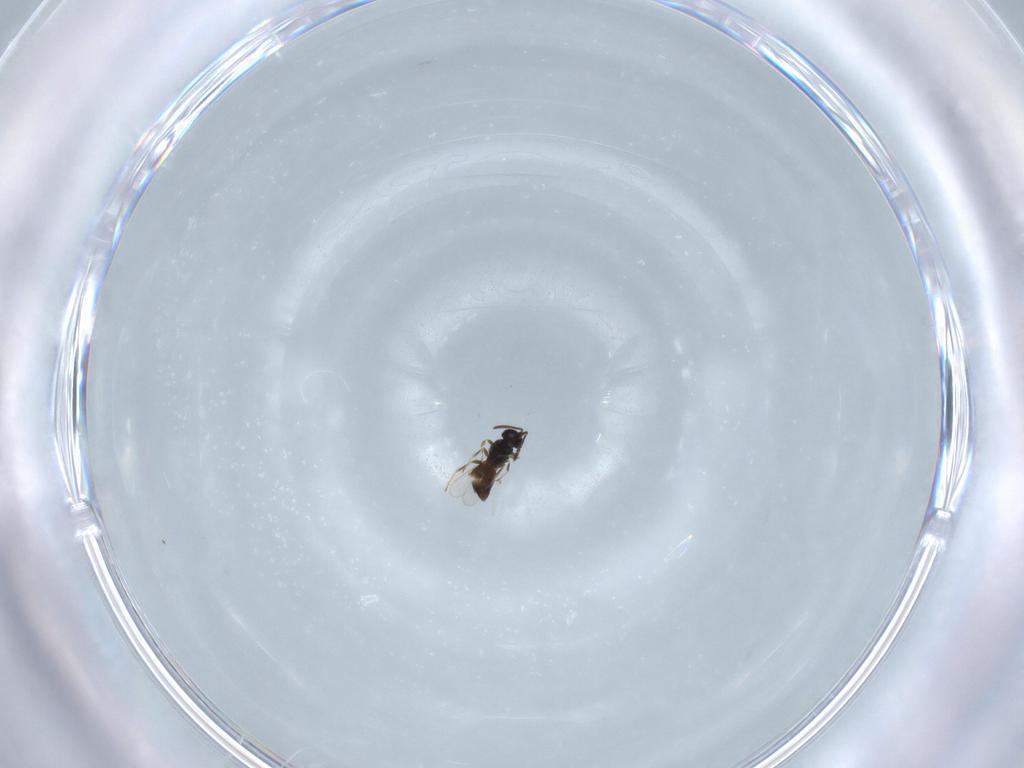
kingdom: Animalia
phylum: Arthropoda
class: Insecta
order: Hymenoptera
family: Scelionidae
